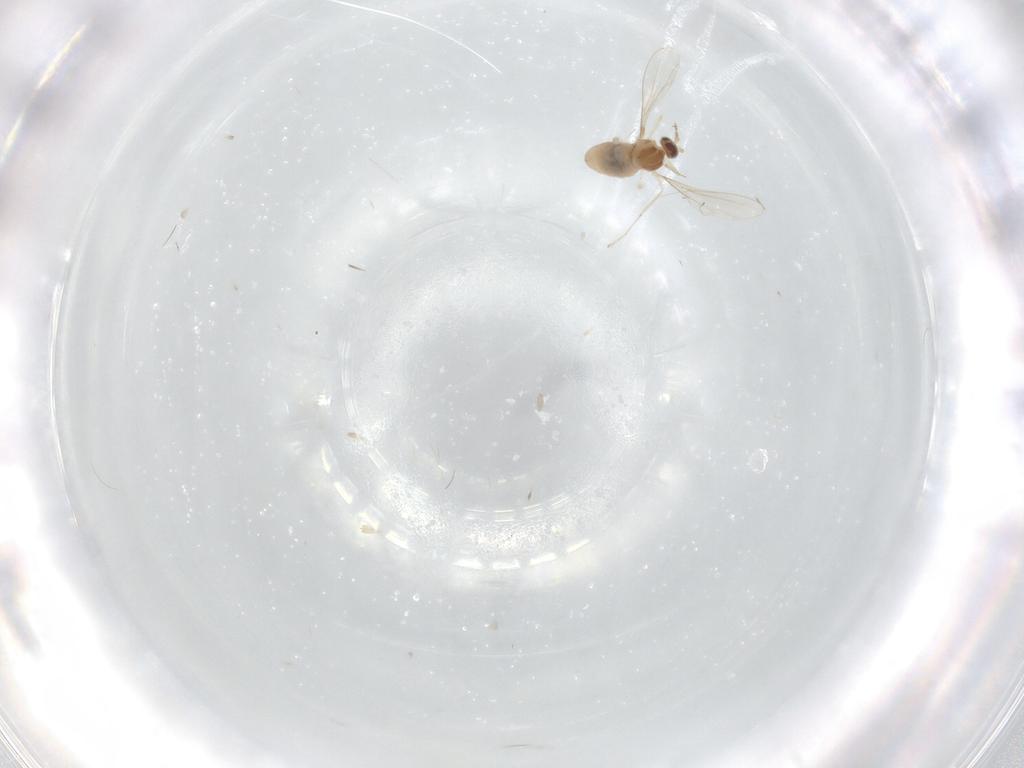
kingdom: Animalia
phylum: Arthropoda
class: Insecta
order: Diptera
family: Cecidomyiidae
